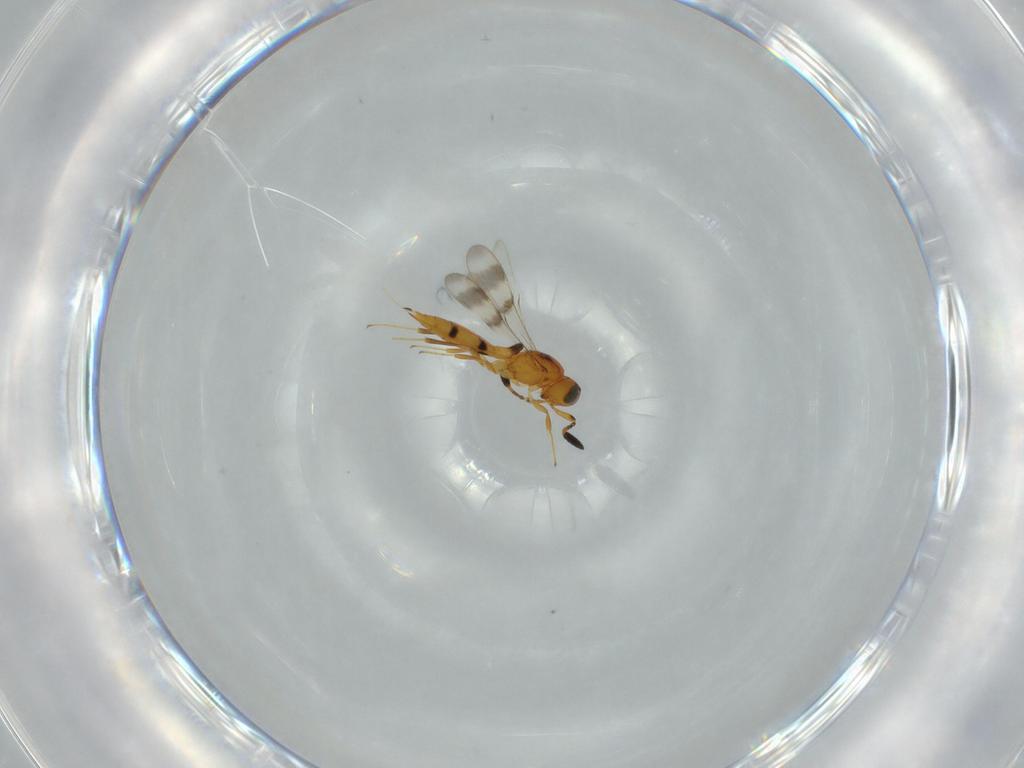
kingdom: Animalia
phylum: Arthropoda
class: Insecta
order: Hymenoptera
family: Scelionidae
